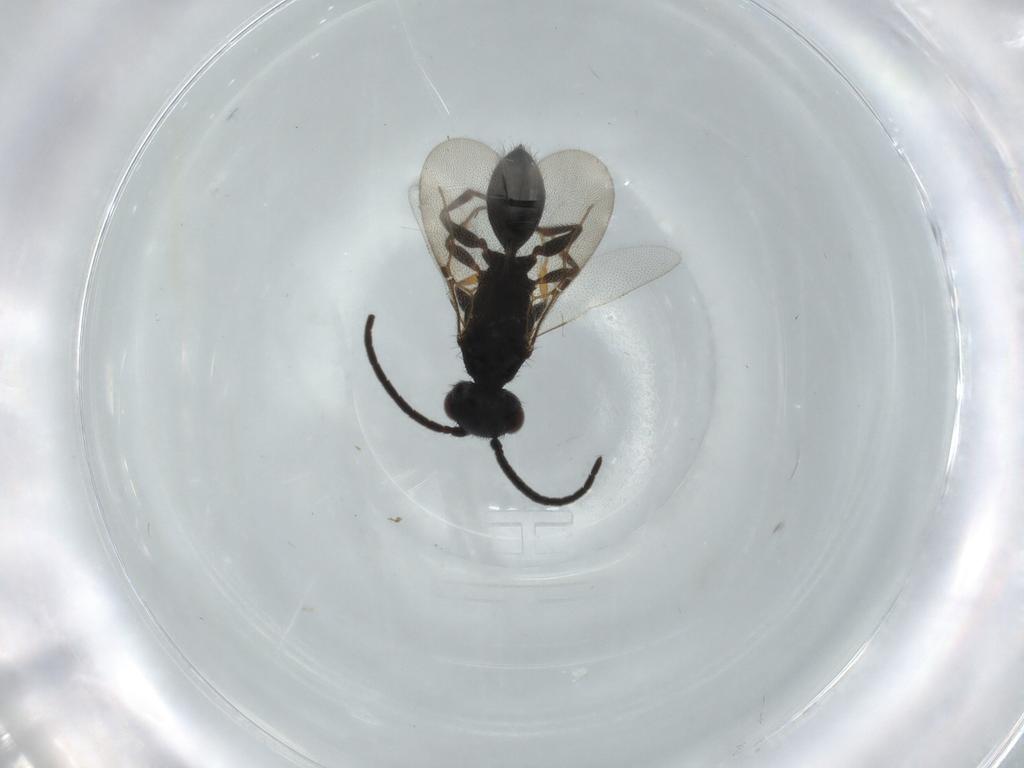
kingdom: Animalia
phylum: Arthropoda
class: Insecta
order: Hymenoptera
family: Bethylidae
